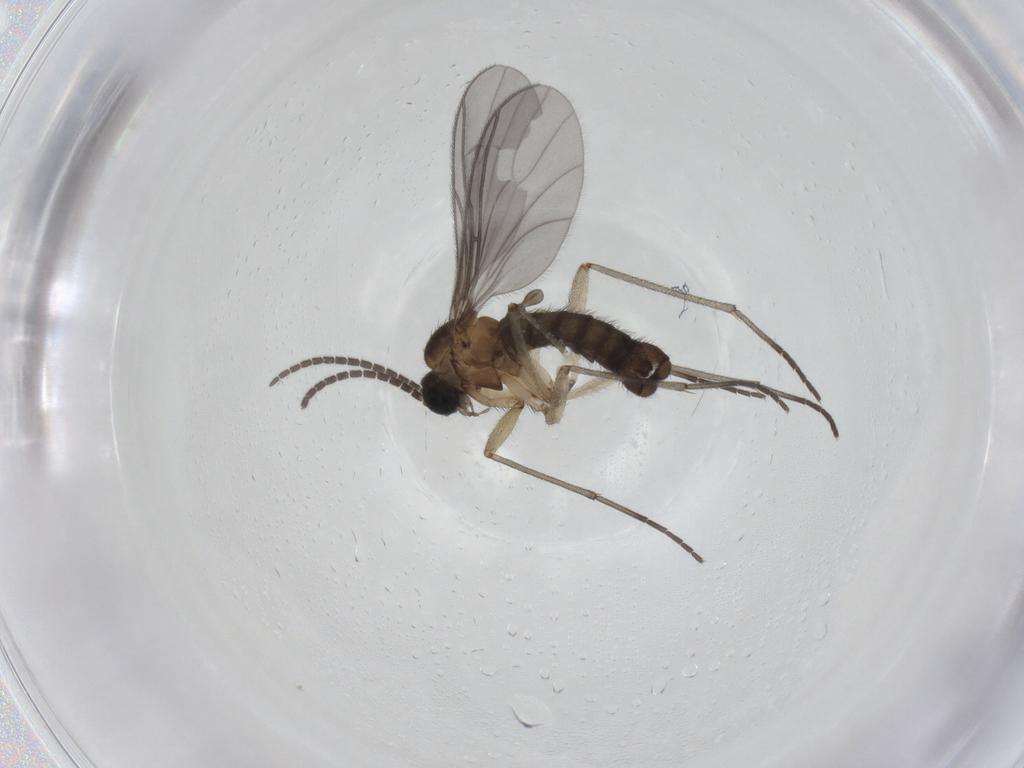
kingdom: Animalia
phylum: Arthropoda
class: Insecta
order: Diptera
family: Sciaridae
